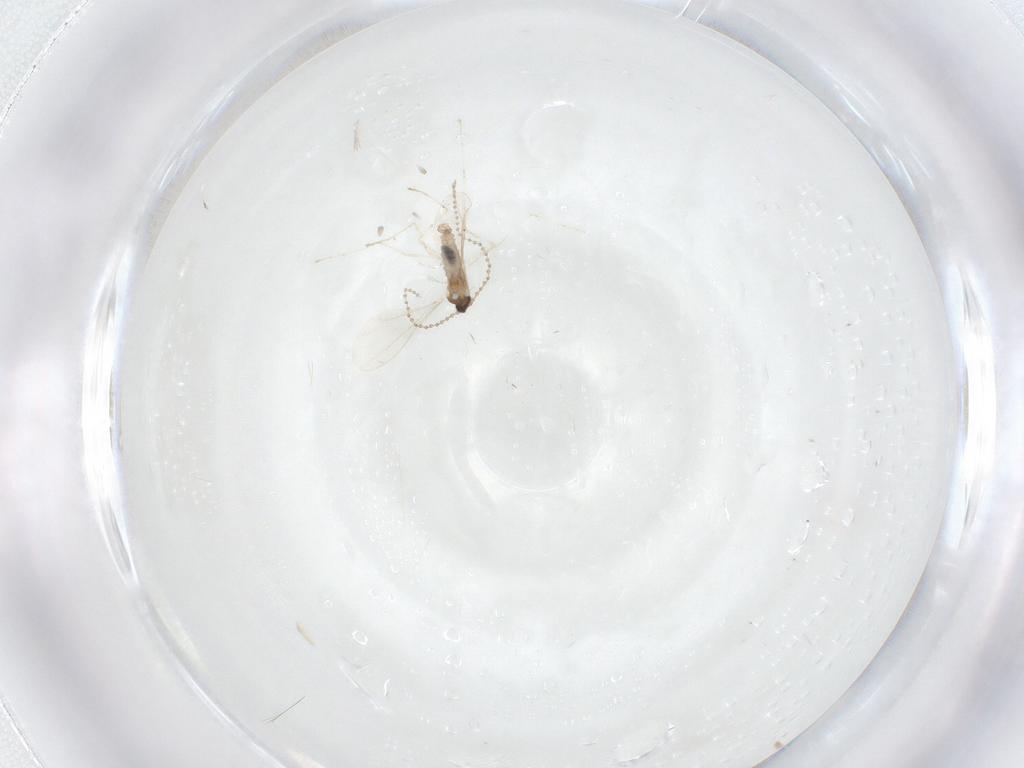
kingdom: Animalia
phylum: Arthropoda
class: Insecta
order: Diptera
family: Cecidomyiidae
